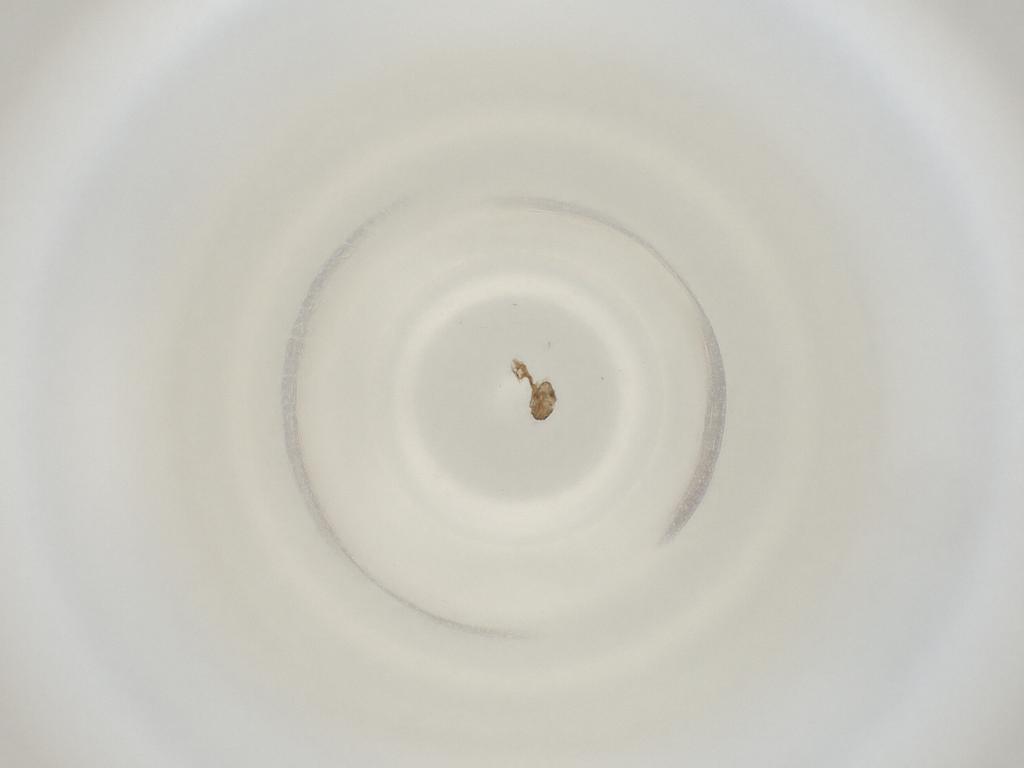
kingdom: Animalia
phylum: Arthropoda
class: Insecta
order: Diptera
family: Cecidomyiidae
